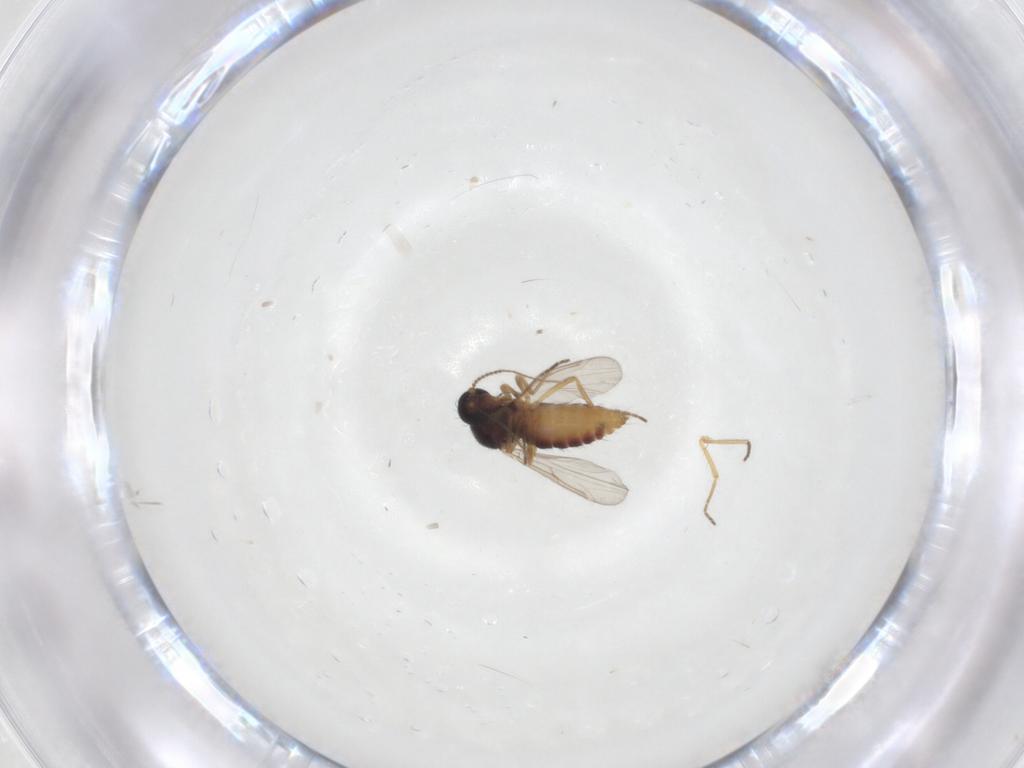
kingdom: Animalia
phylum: Arthropoda
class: Insecta
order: Diptera
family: Ceratopogonidae
